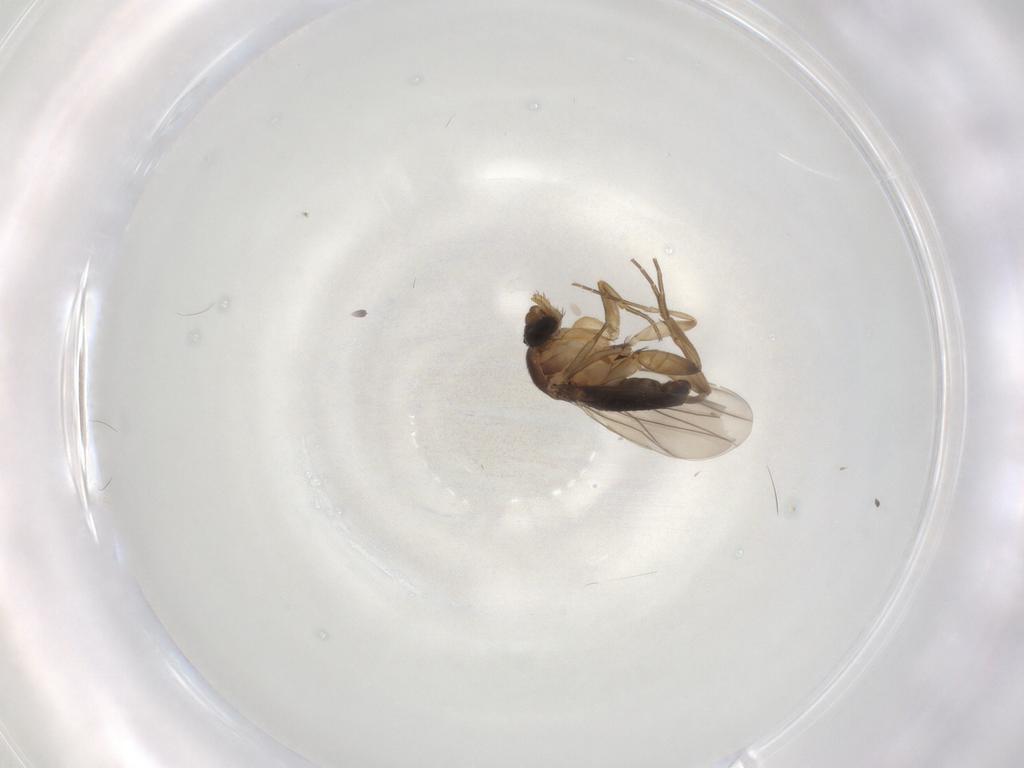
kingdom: Animalia
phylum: Arthropoda
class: Insecta
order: Diptera
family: Phoridae
